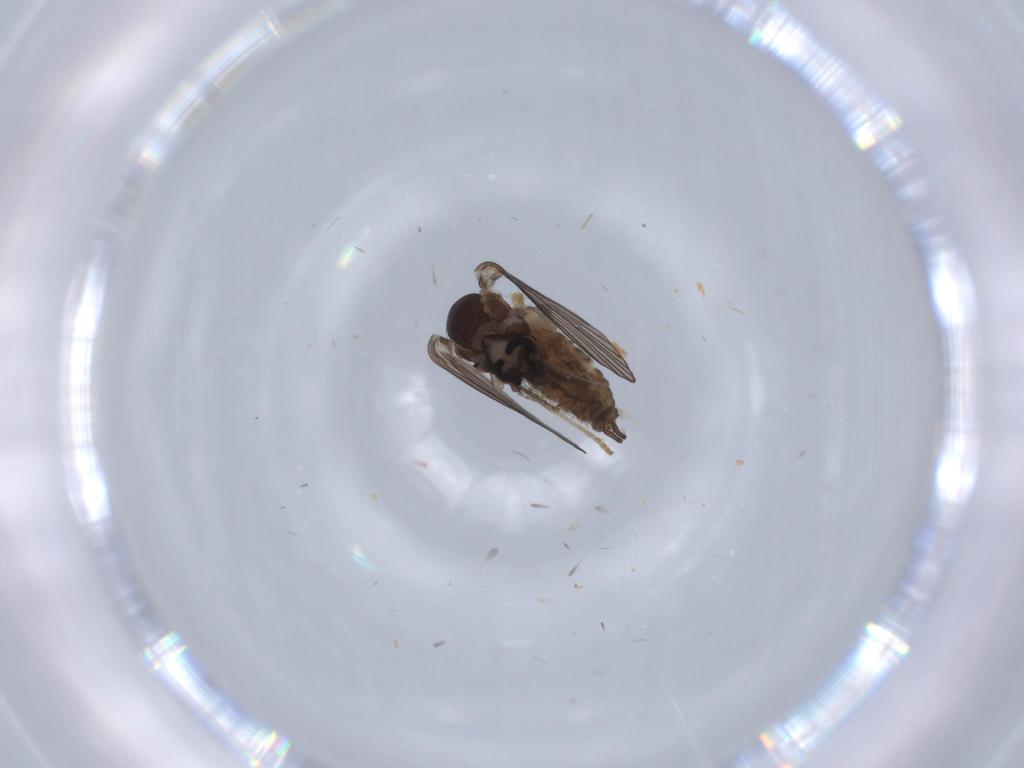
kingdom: Animalia
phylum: Arthropoda
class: Insecta
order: Diptera
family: Psychodidae
